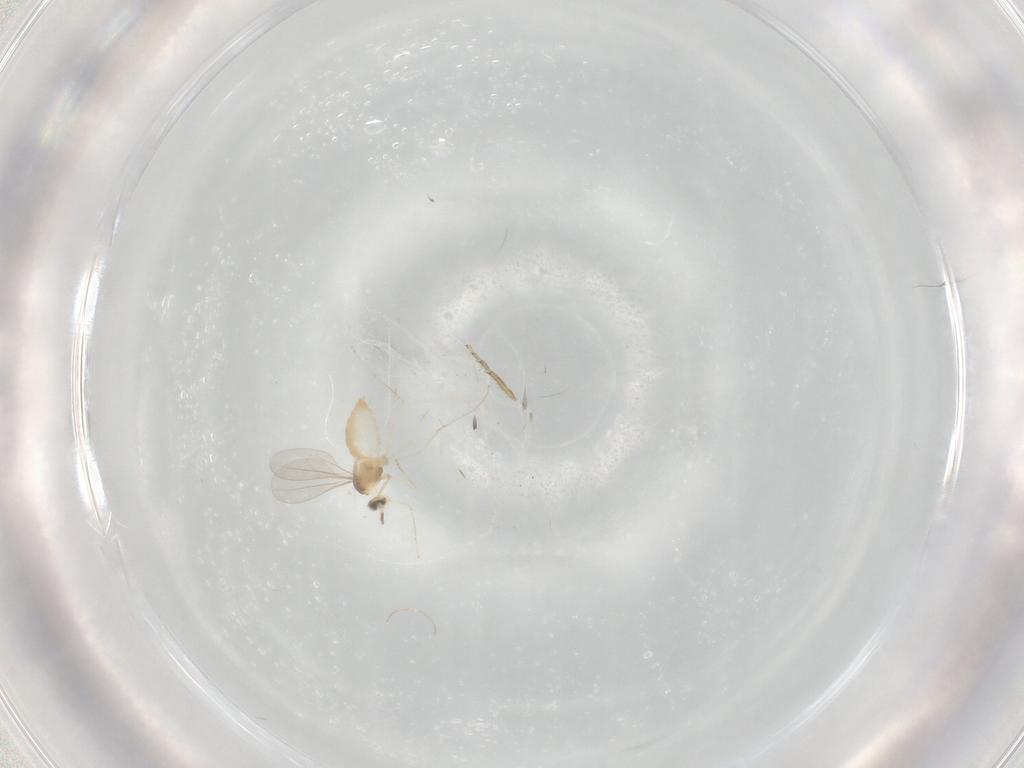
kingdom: Animalia
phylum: Arthropoda
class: Insecta
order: Diptera
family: Cecidomyiidae
